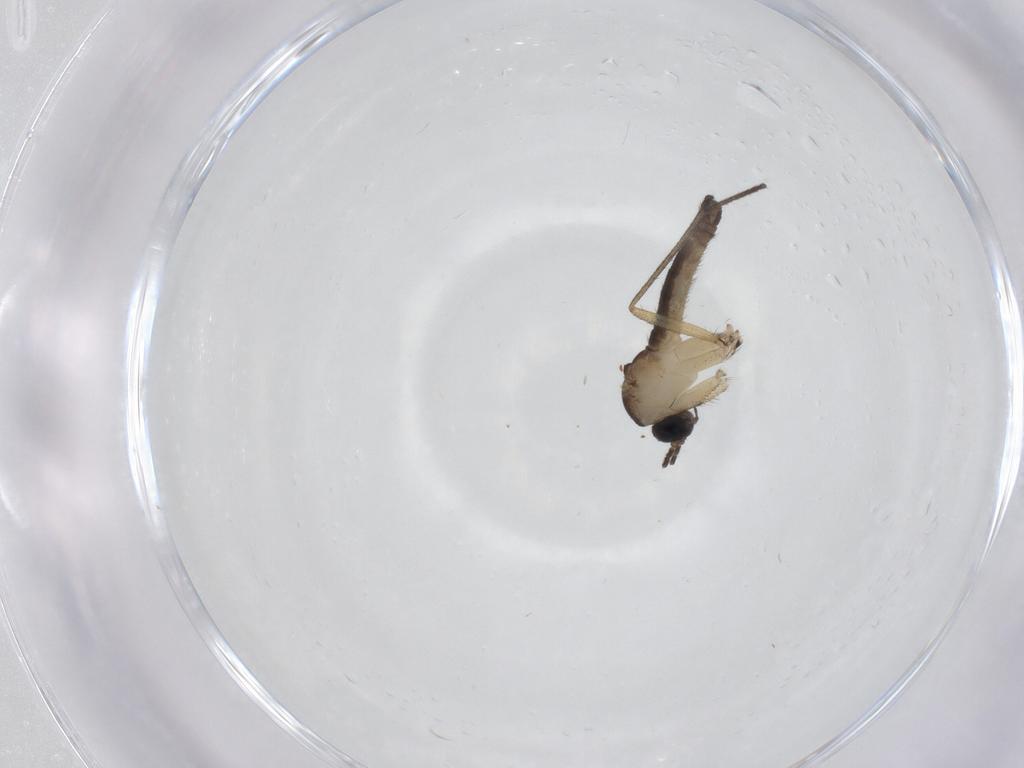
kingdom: Animalia
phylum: Arthropoda
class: Insecta
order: Diptera
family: Sciaridae
